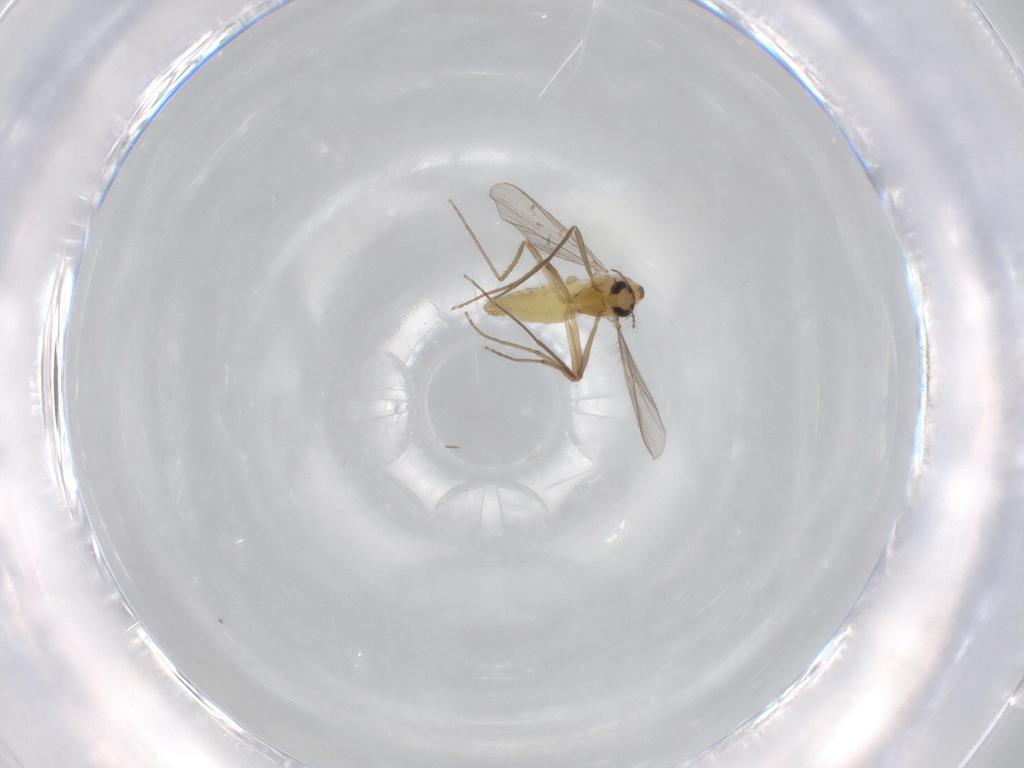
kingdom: Animalia
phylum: Arthropoda
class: Insecta
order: Diptera
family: Chironomidae
